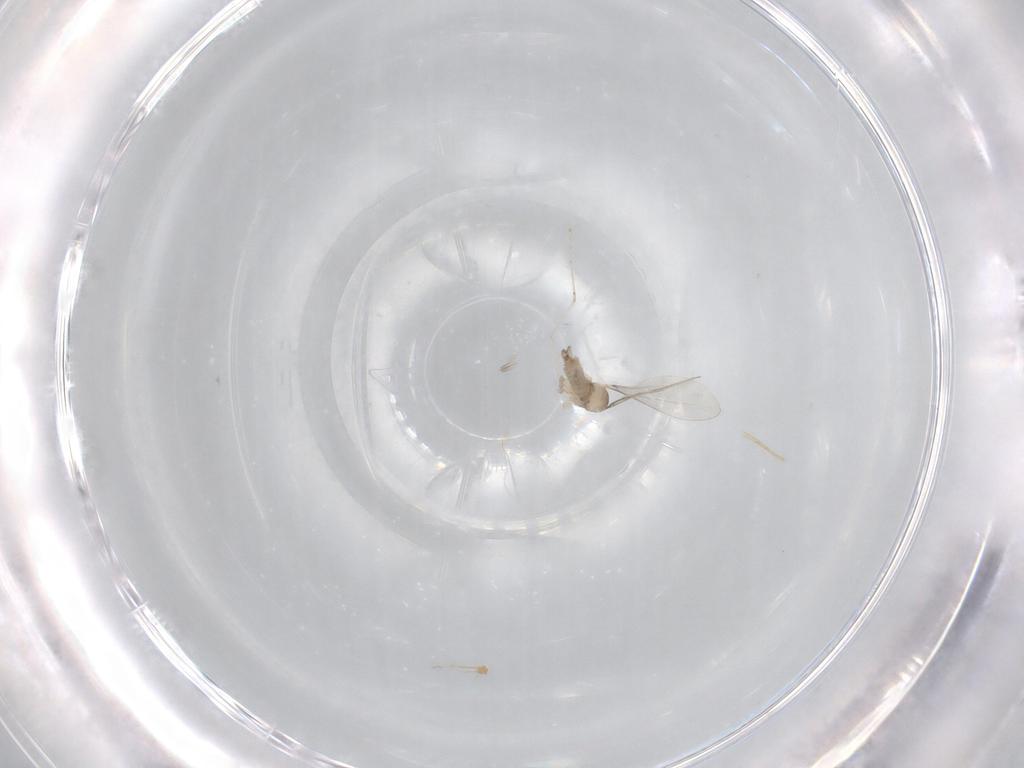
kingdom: Animalia
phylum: Arthropoda
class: Insecta
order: Diptera
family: Cecidomyiidae
